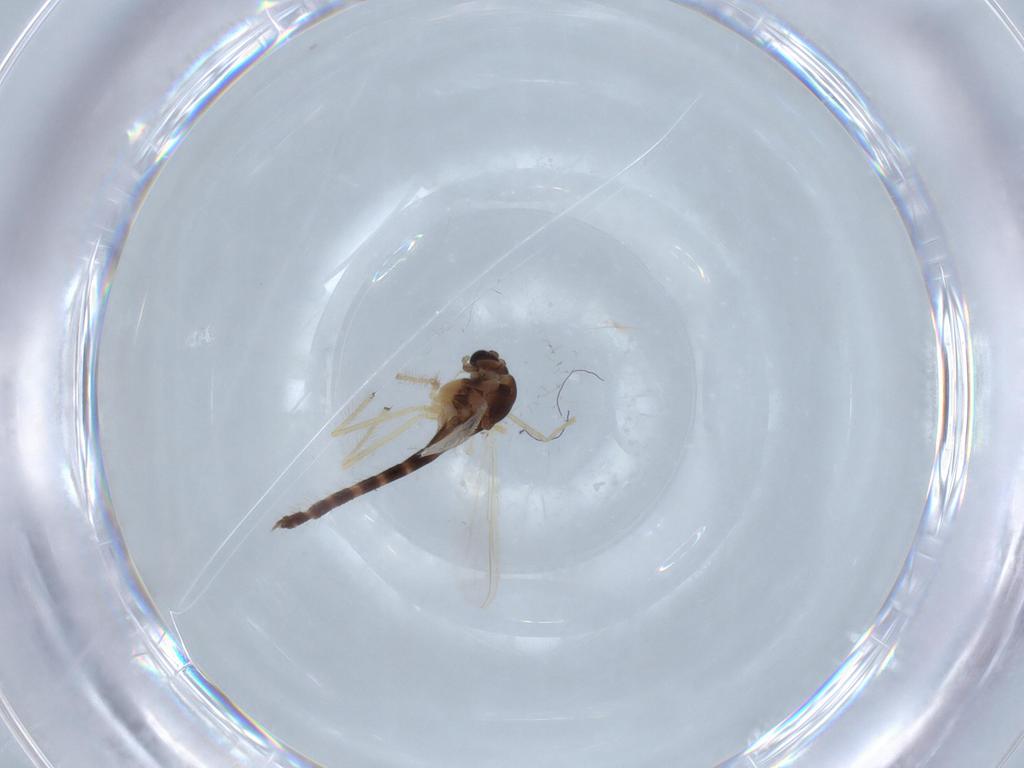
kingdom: Animalia
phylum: Arthropoda
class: Insecta
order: Diptera
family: Chironomidae
